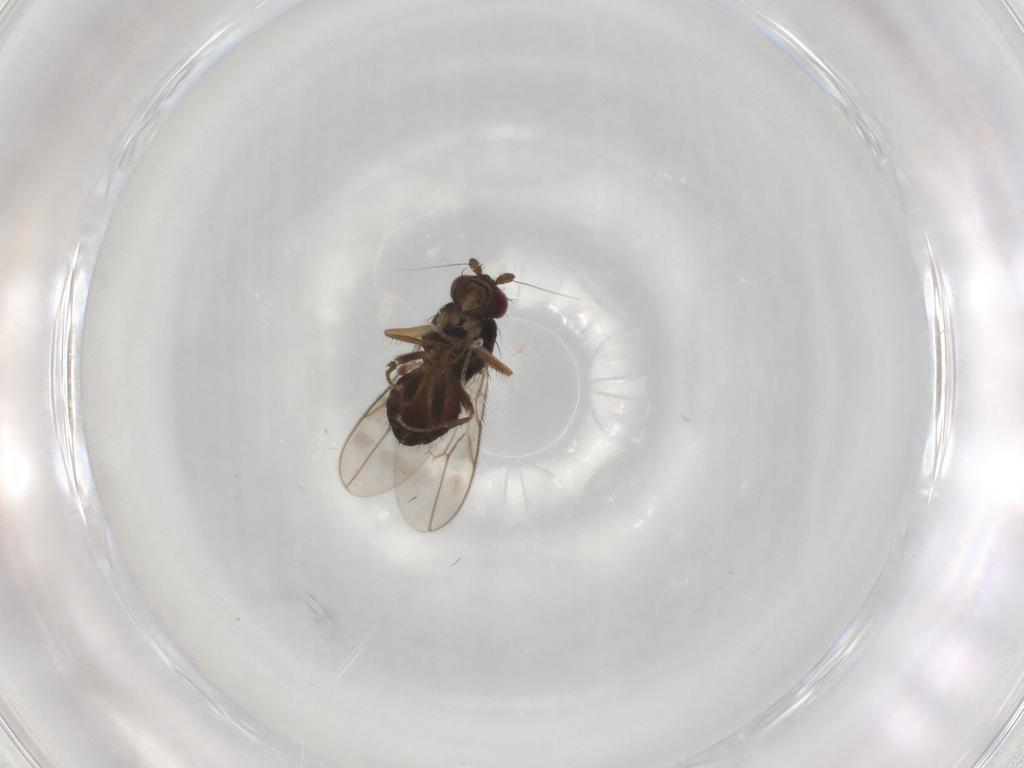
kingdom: Animalia
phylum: Arthropoda
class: Insecta
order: Diptera
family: Sphaeroceridae
